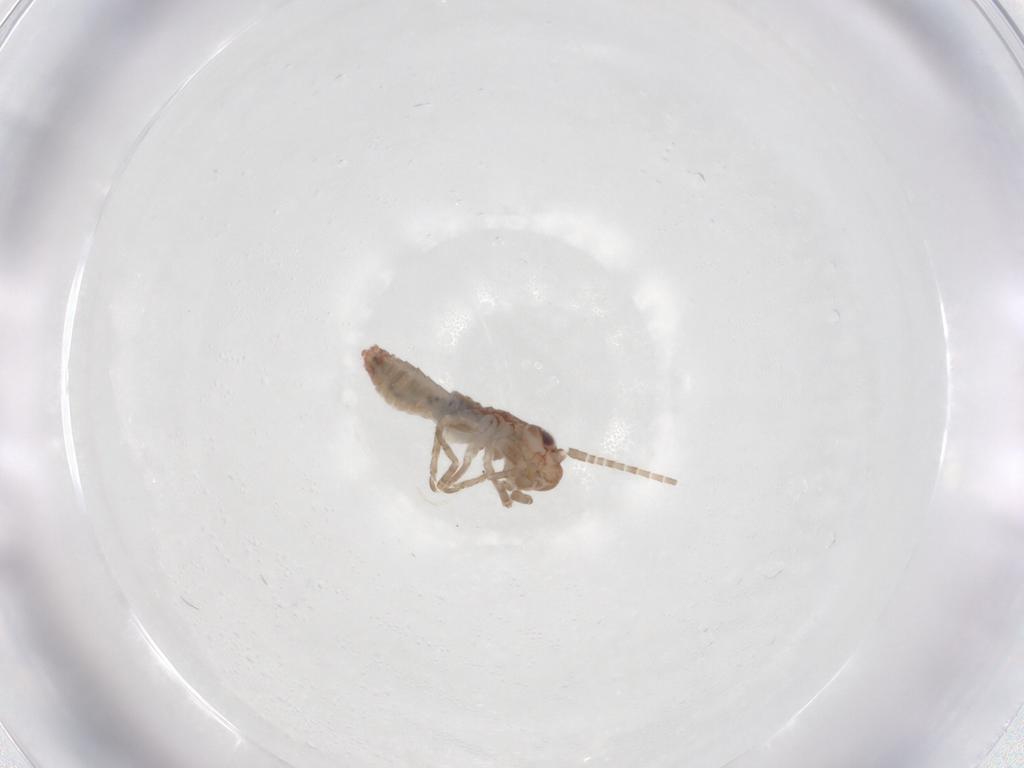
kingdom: Animalia
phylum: Arthropoda
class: Insecta
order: Orthoptera
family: Mogoplistidae
